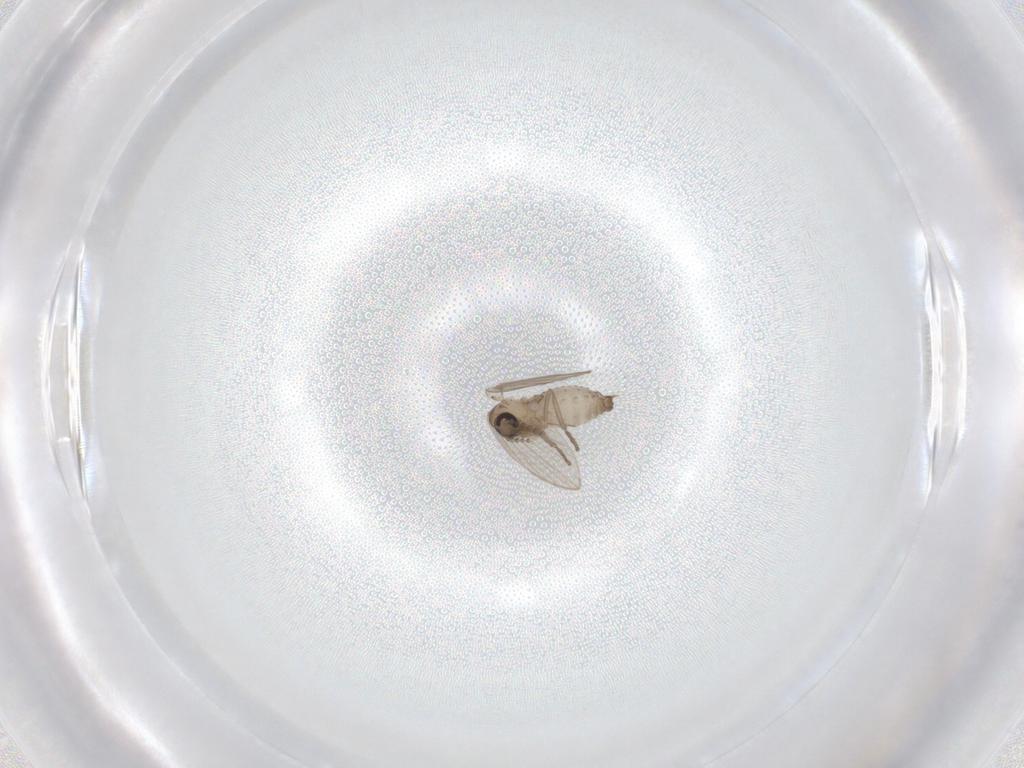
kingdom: Animalia
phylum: Arthropoda
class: Insecta
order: Diptera
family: Psychodidae
